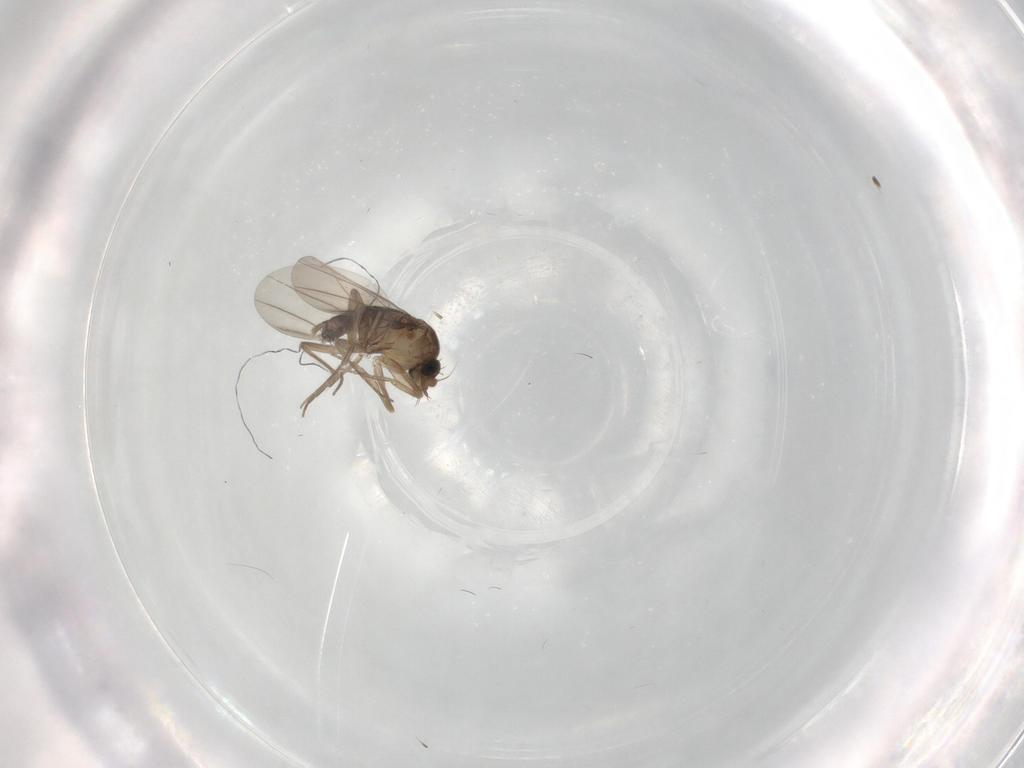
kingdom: Animalia
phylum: Arthropoda
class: Insecta
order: Diptera
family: Phoridae
